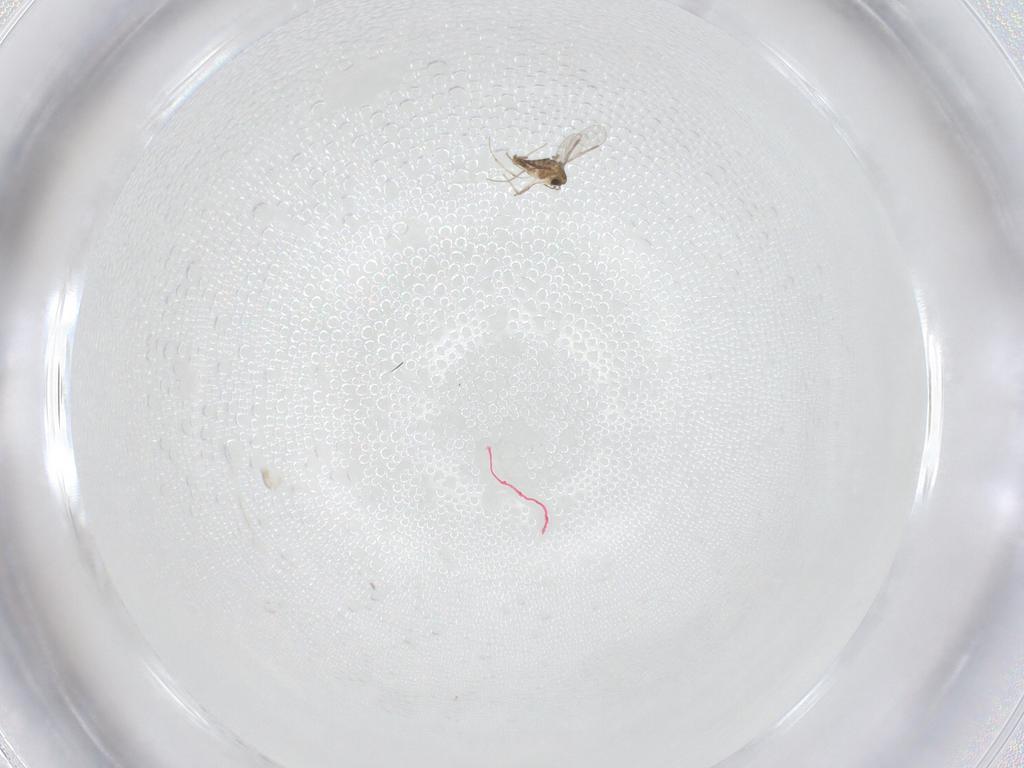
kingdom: Animalia
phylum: Arthropoda
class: Insecta
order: Diptera
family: Chironomidae
